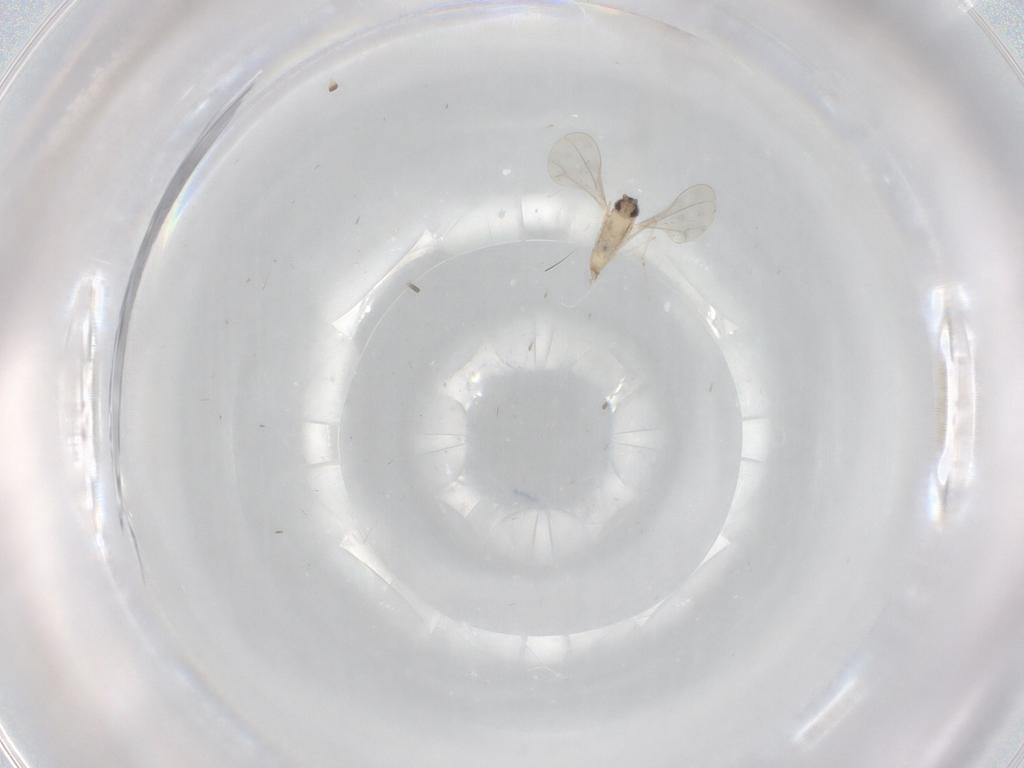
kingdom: Animalia
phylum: Arthropoda
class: Insecta
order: Diptera
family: Cecidomyiidae
